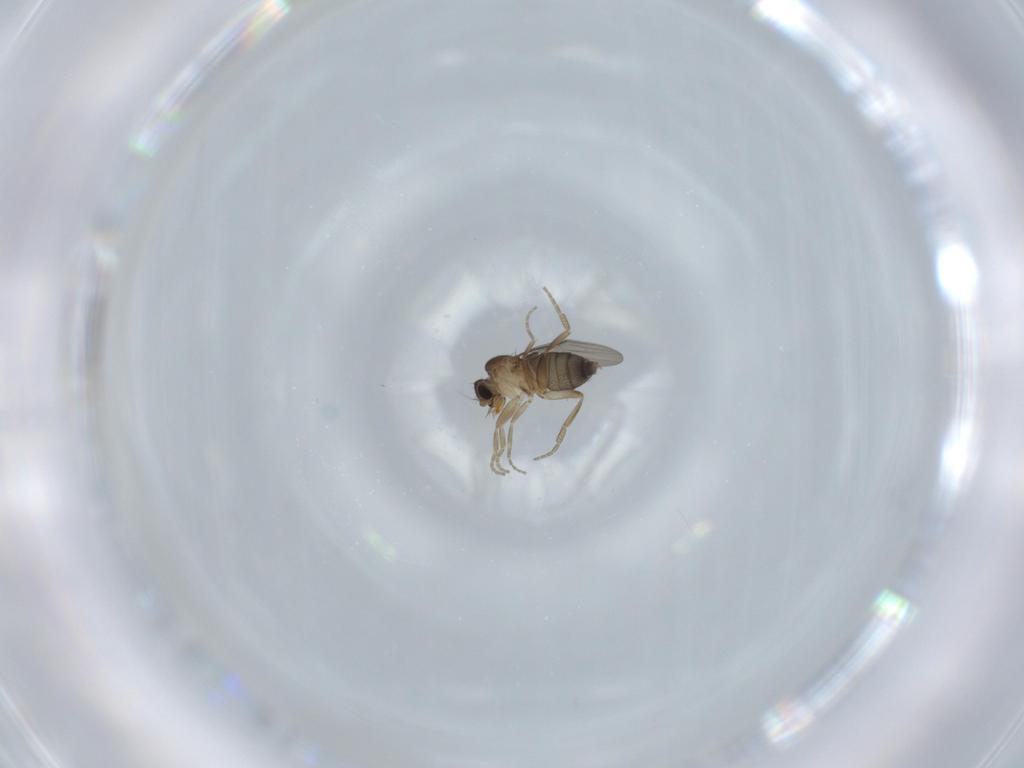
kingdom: Animalia
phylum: Arthropoda
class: Insecta
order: Diptera
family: Phoridae
